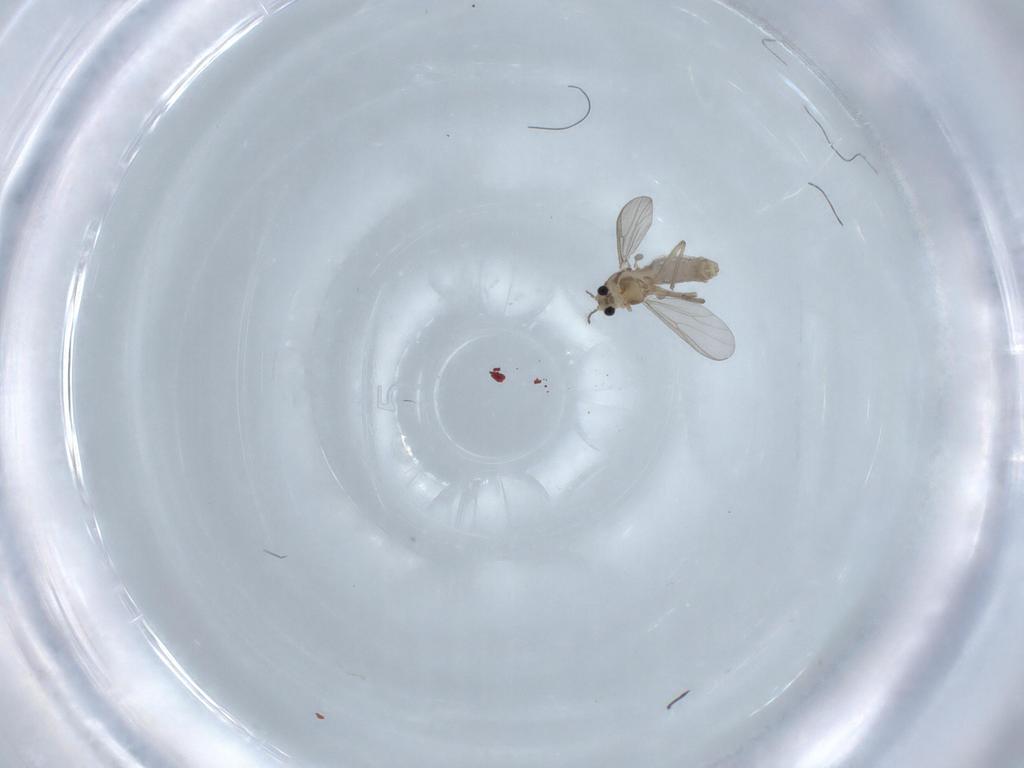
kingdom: Animalia
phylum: Arthropoda
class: Insecta
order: Diptera
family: Chironomidae
